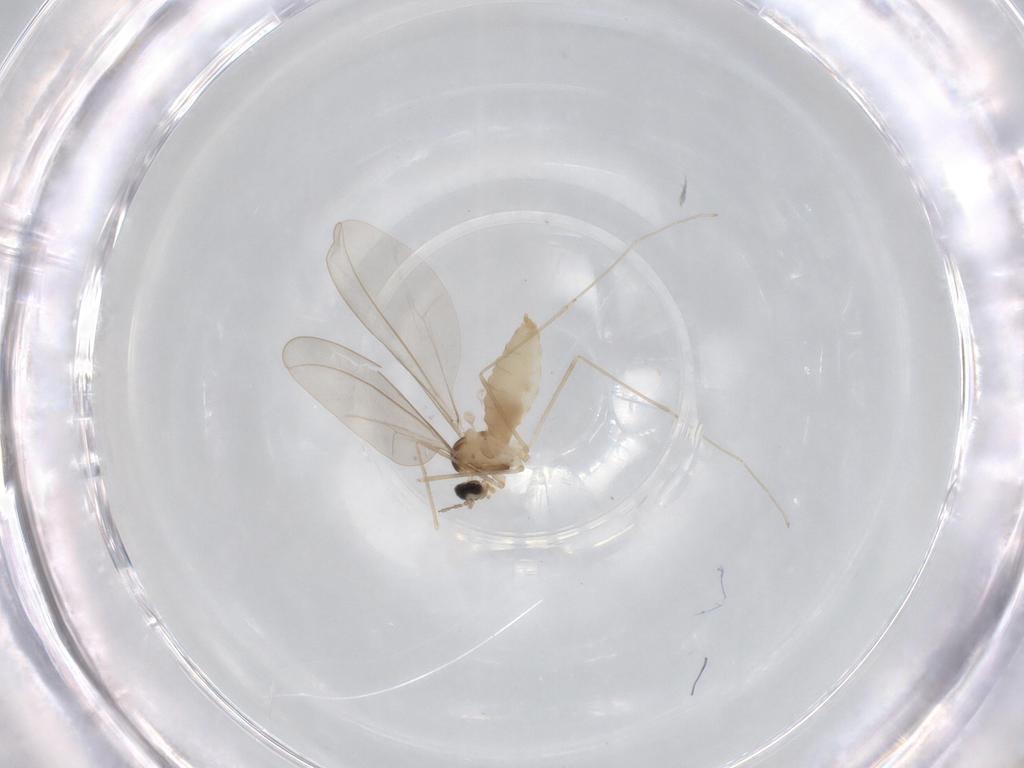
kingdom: Animalia
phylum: Arthropoda
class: Insecta
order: Diptera
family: Cecidomyiidae
